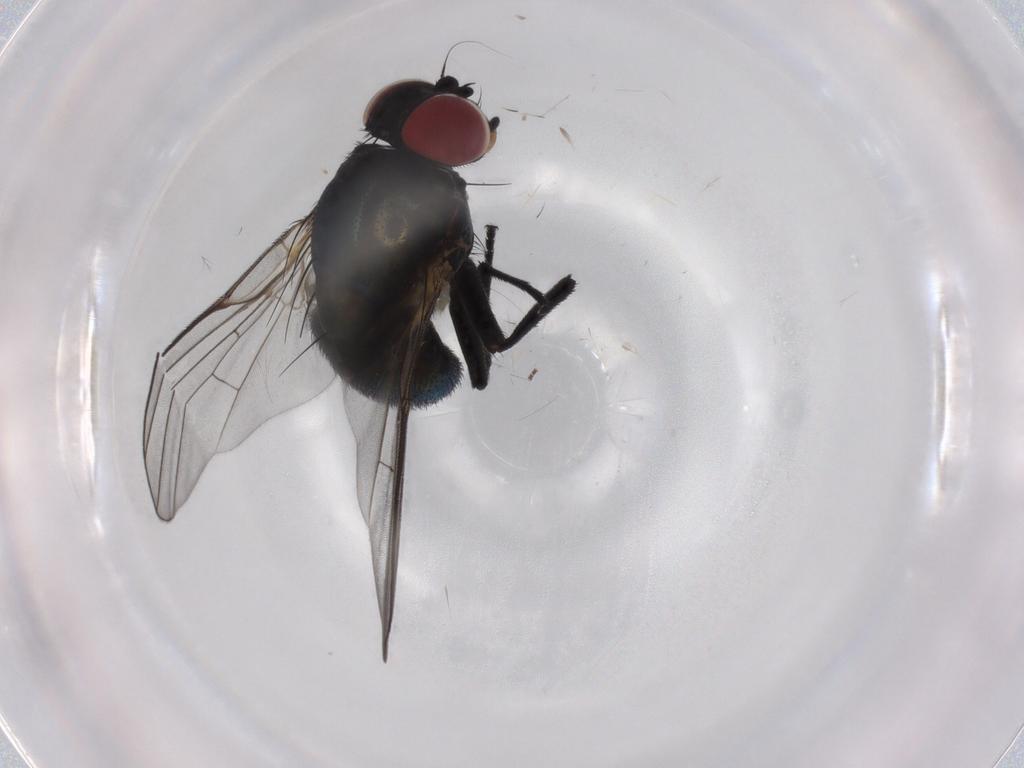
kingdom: Animalia
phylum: Arthropoda
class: Insecta
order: Diptera
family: Agromyzidae
